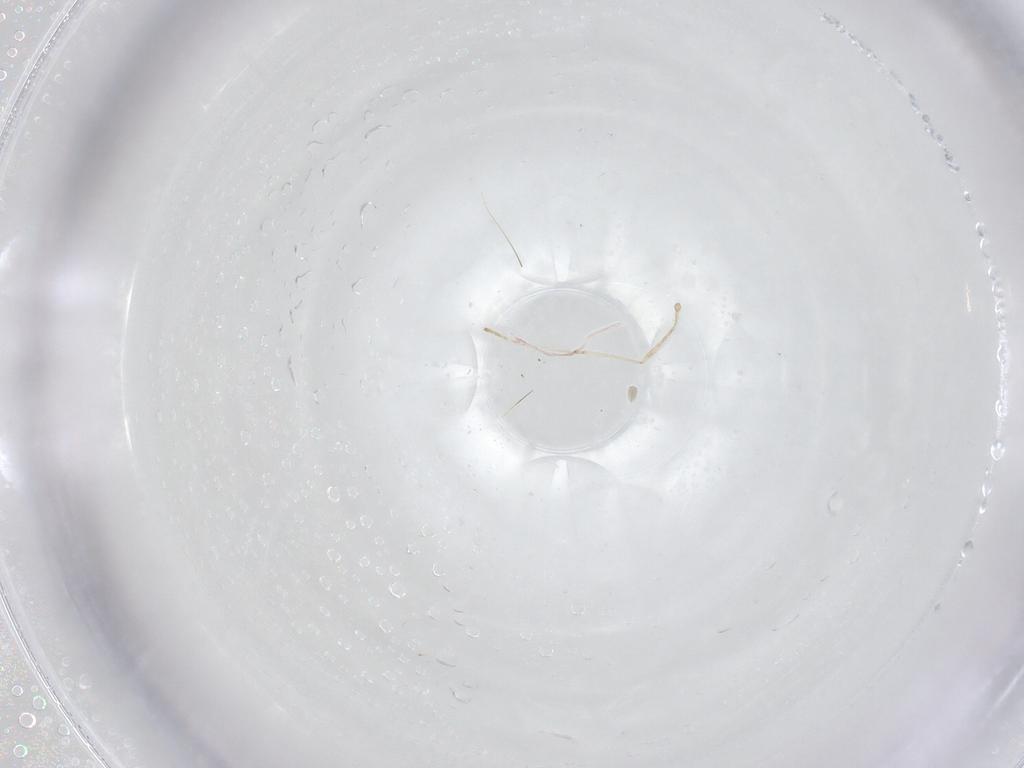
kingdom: Animalia
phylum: Arthropoda
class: Insecta
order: Diptera
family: Cecidomyiidae
